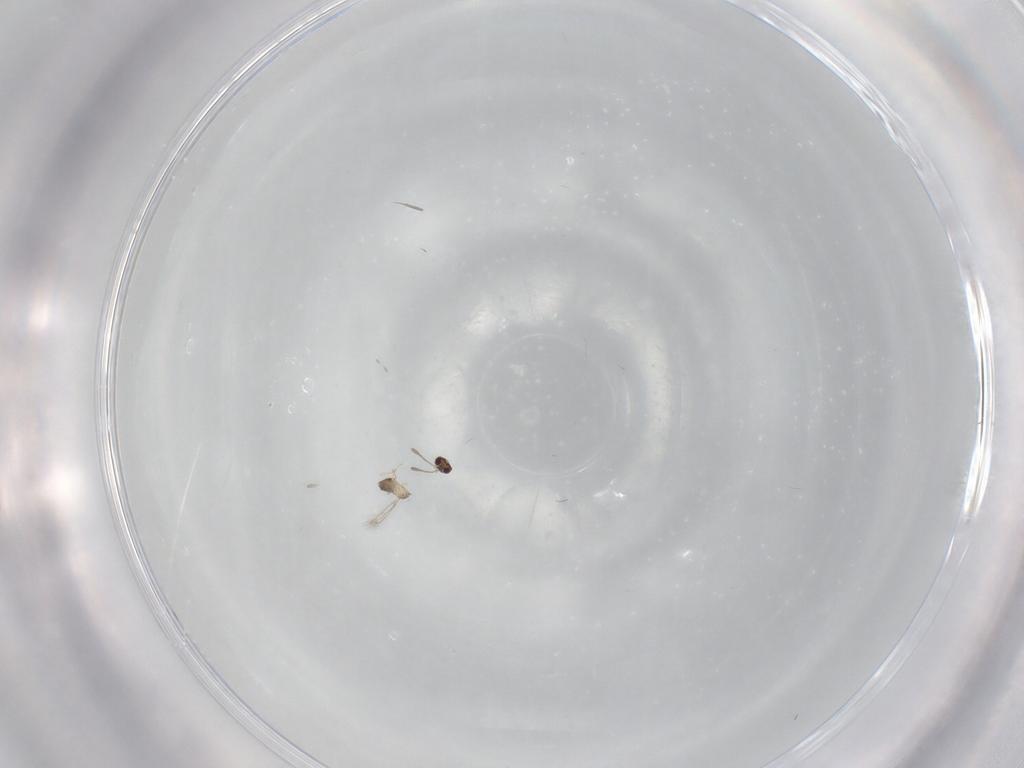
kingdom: Animalia
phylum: Arthropoda
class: Insecta
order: Diptera
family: Cecidomyiidae
